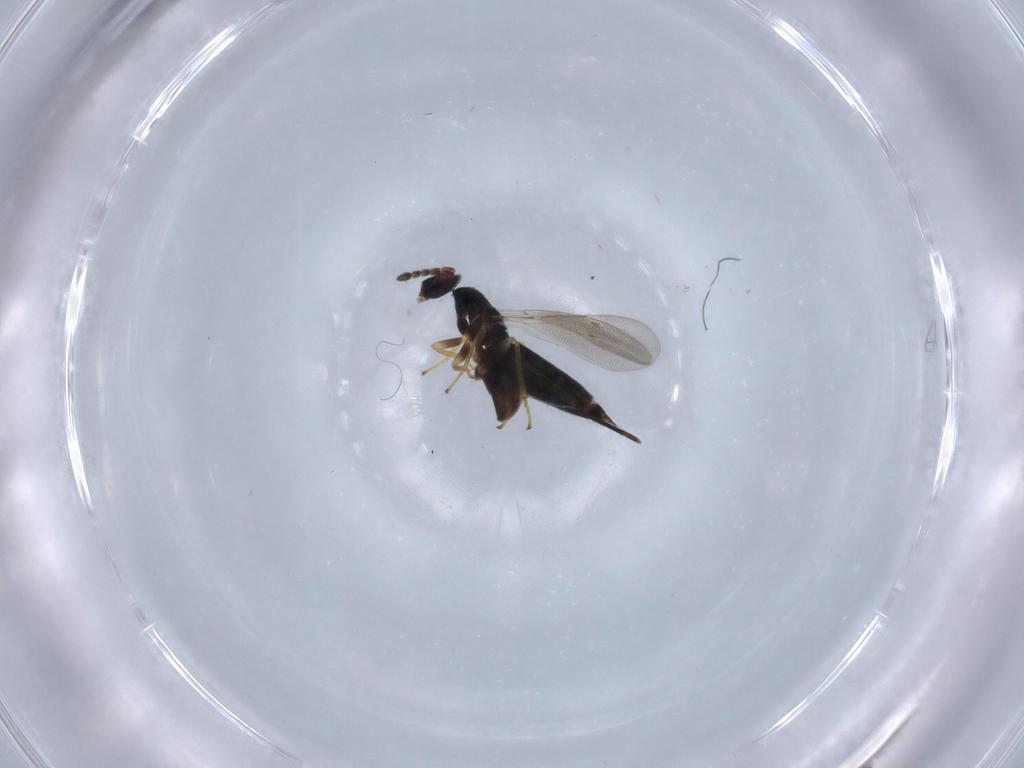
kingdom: Animalia
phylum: Arthropoda
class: Insecta
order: Hymenoptera
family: Eulophidae
